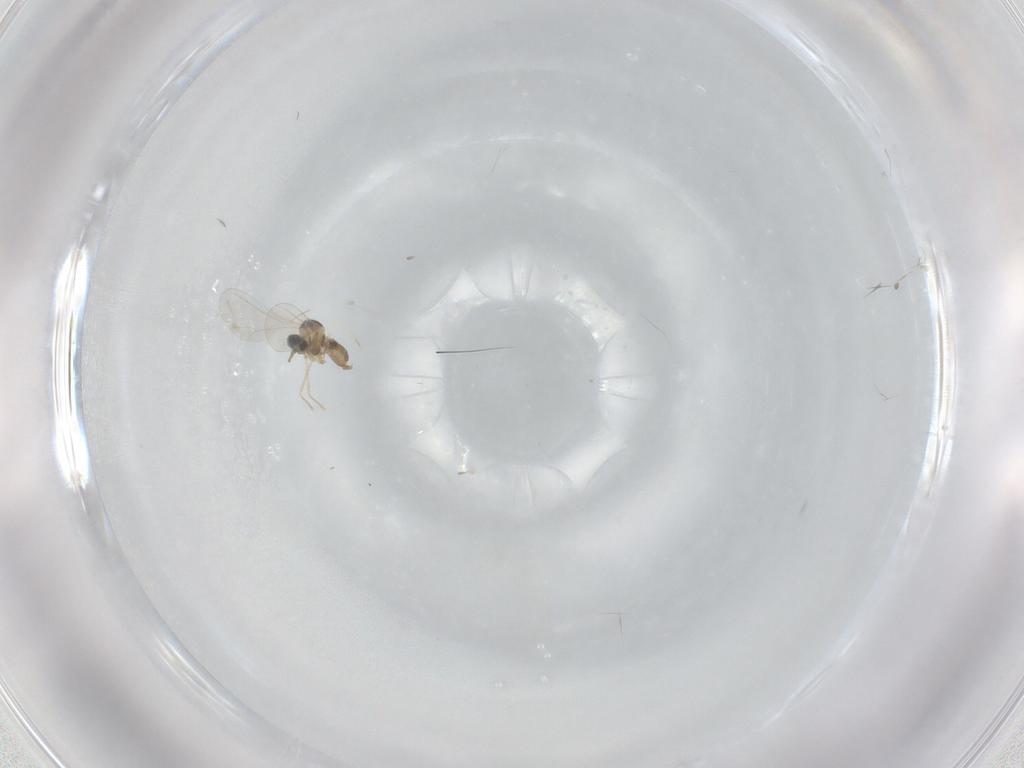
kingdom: Animalia
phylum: Arthropoda
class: Insecta
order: Diptera
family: Cecidomyiidae
